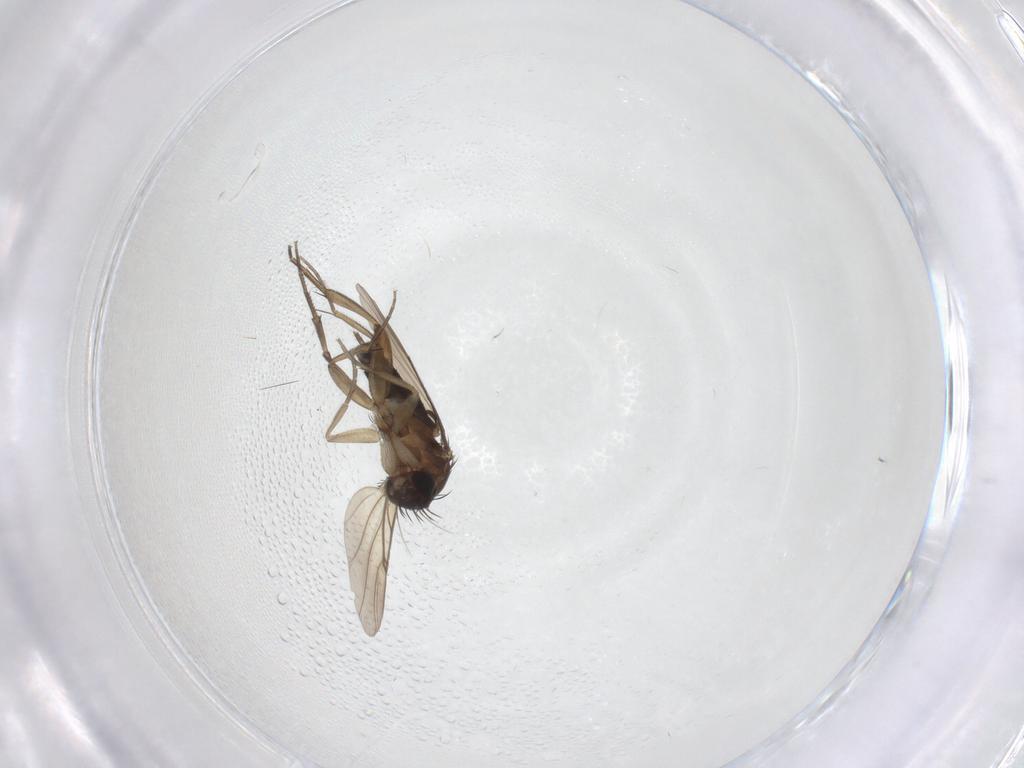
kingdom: Animalia
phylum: Arthropoda
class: Insecta
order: Diptera
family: Phoridae
